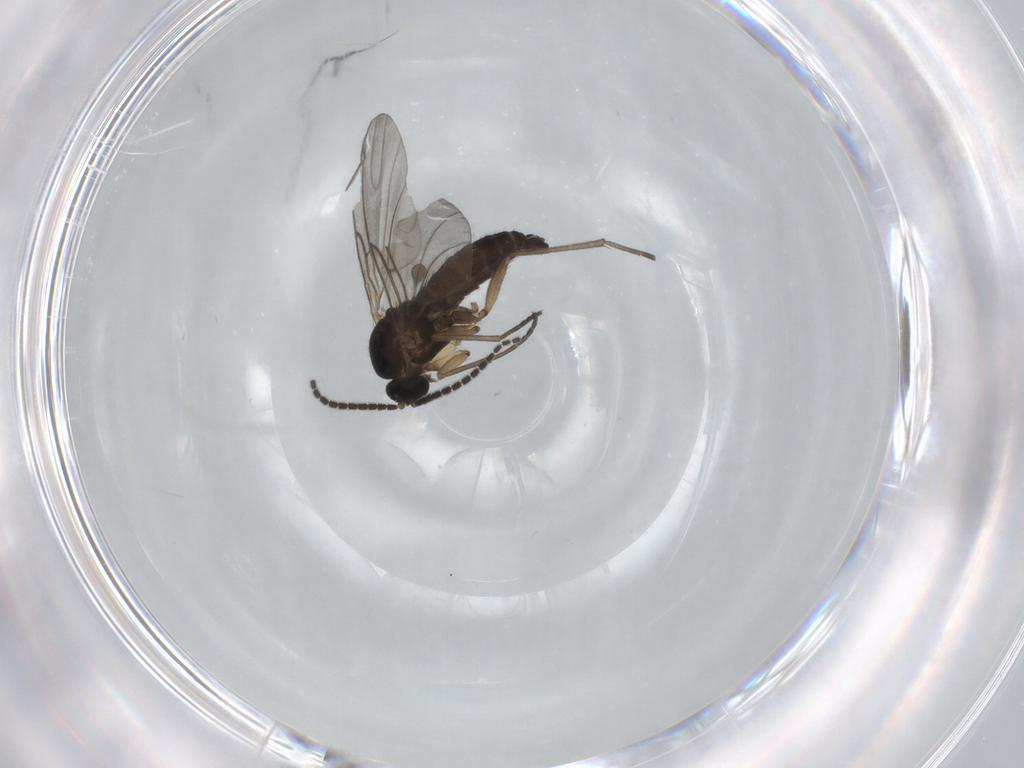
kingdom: Animalia
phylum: Arthropoda
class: Insecta
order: Diptera
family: Sciaridae
